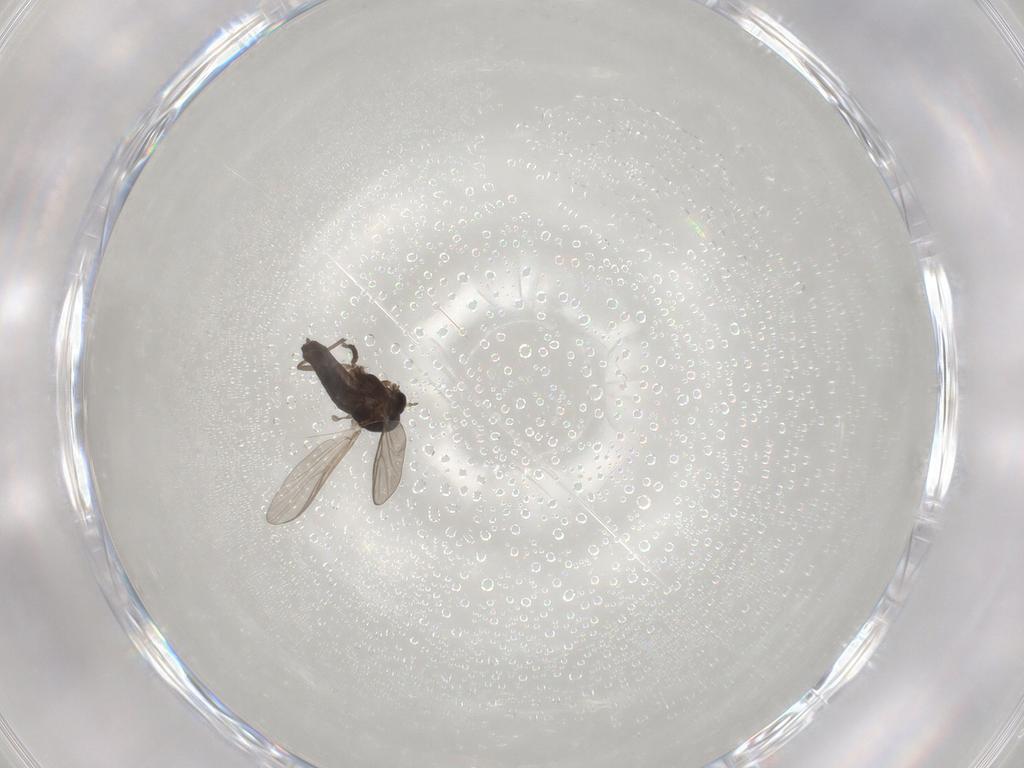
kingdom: Animalia
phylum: Arthropoda
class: Insecta
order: Diptera
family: Chironomidae
